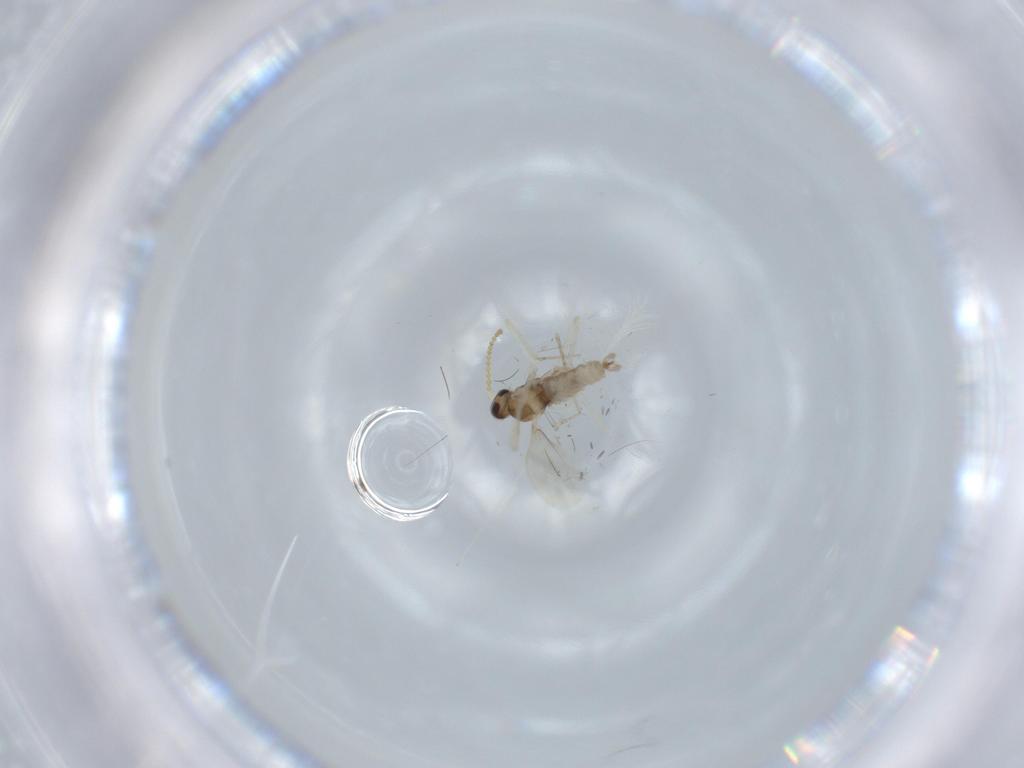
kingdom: Animalia
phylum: Arthropoda
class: Insecta
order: Diptera
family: Cecidomyiidae
